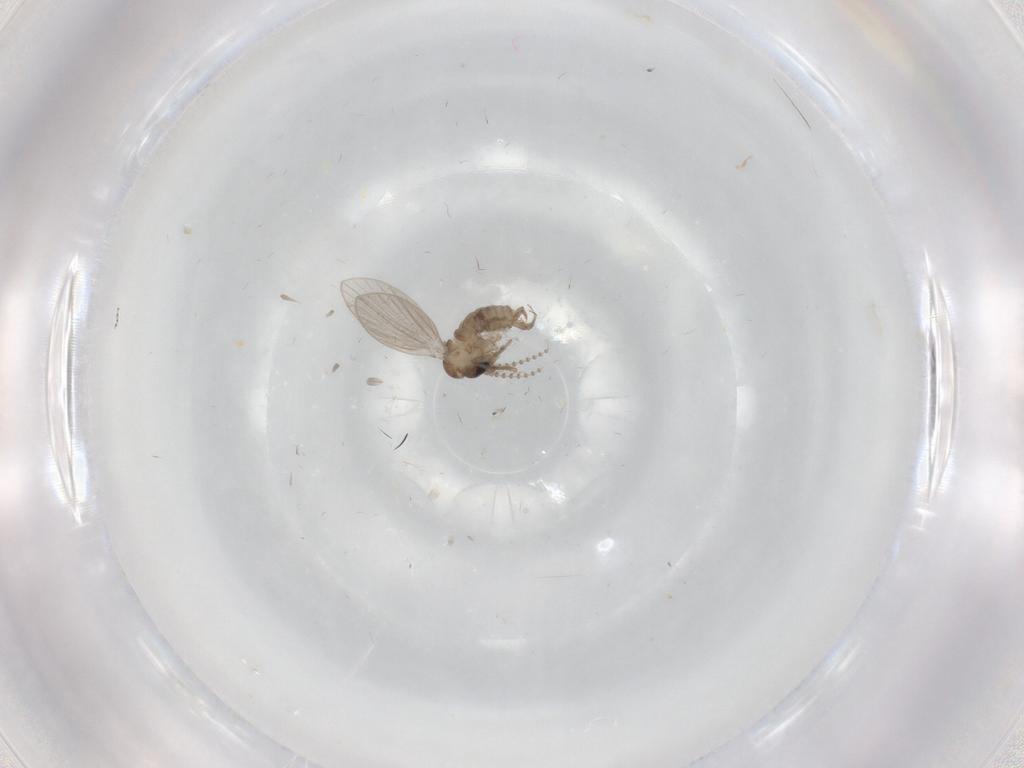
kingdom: Animalia
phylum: Arthropoda
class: Insecta
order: Diptera
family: Psychodidae
